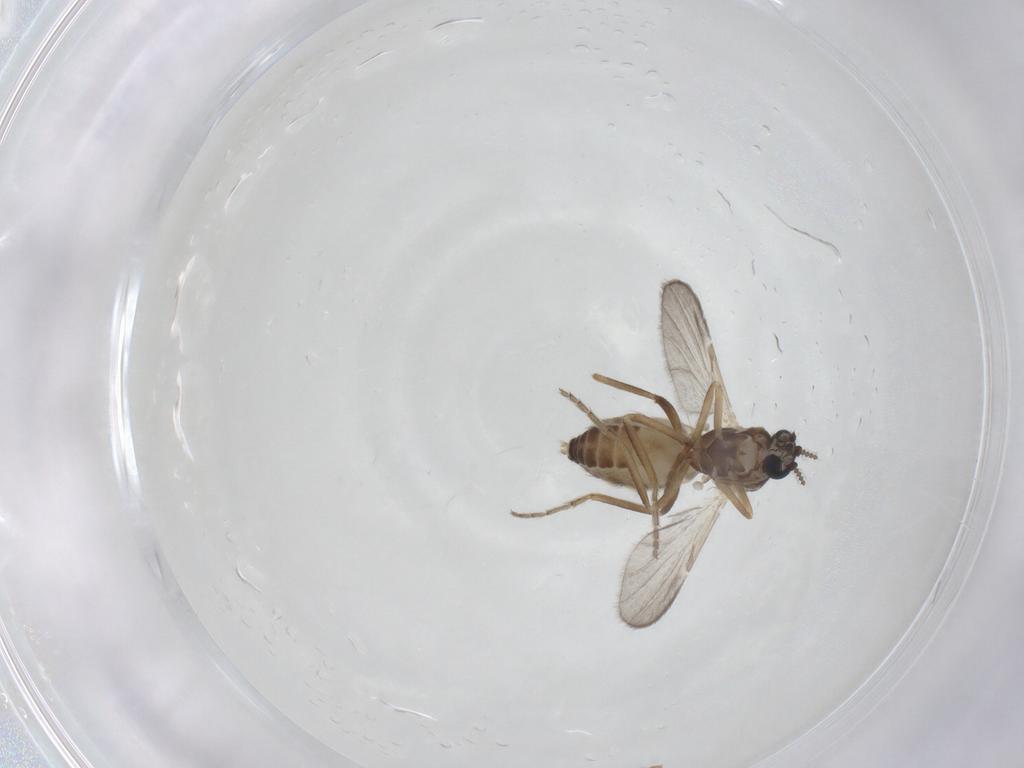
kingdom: Animalia
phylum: Arthropoda
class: Insecta
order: Diptera
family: Ceratopogonidae
